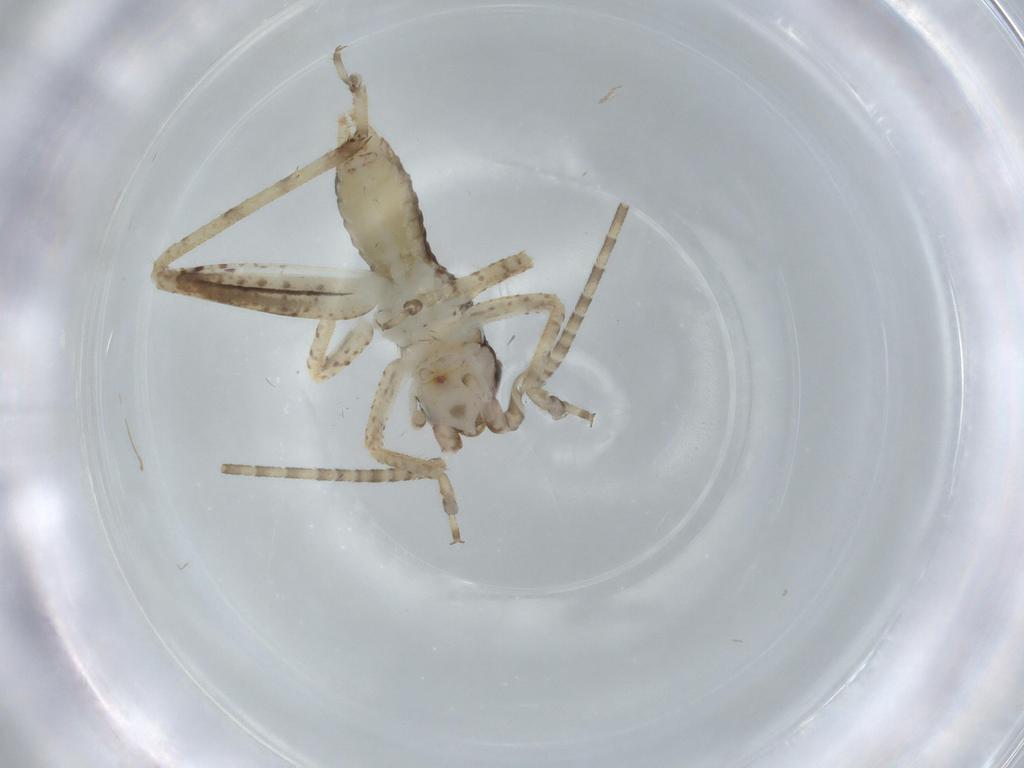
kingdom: Animalia
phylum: Arthropoda
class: Insecta
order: Orthoptera
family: Gryllidae
